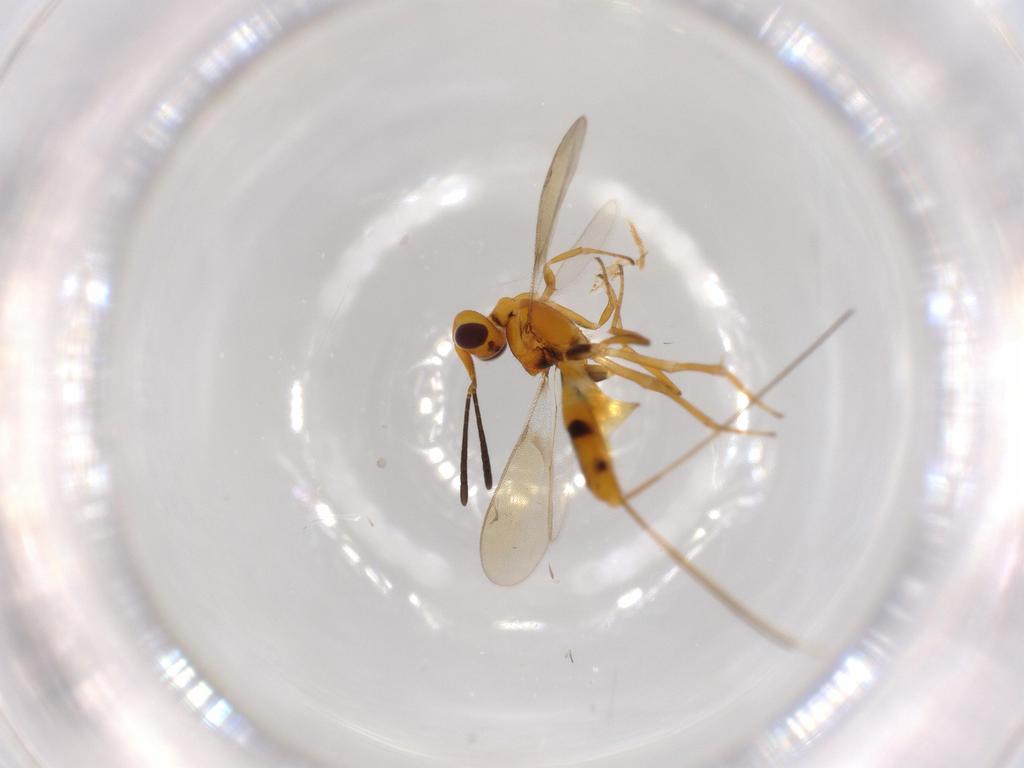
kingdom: Animalia
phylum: Arthropoda
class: Insecta
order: Hymenoptera
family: Eupelmidae
